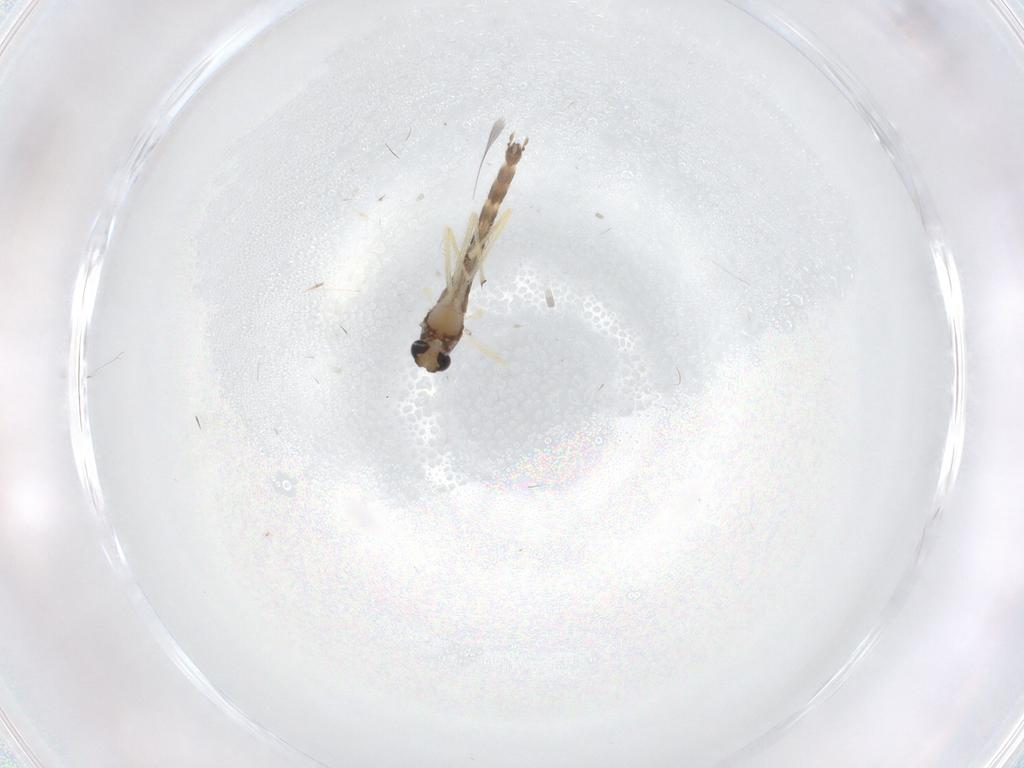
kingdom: Animalia
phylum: Arthropoda
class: Insecta
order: Diptera
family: Chironomidae
